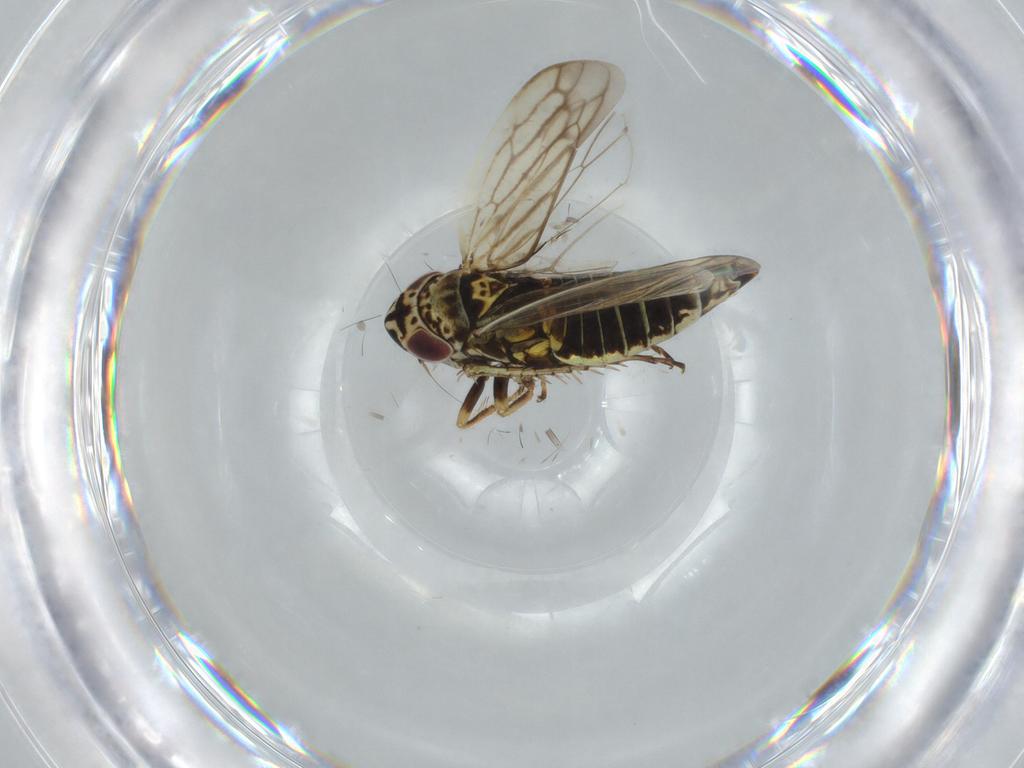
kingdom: Animalia
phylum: Arthropoda
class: Insecta
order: Hemiptera
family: Cicadellidae
